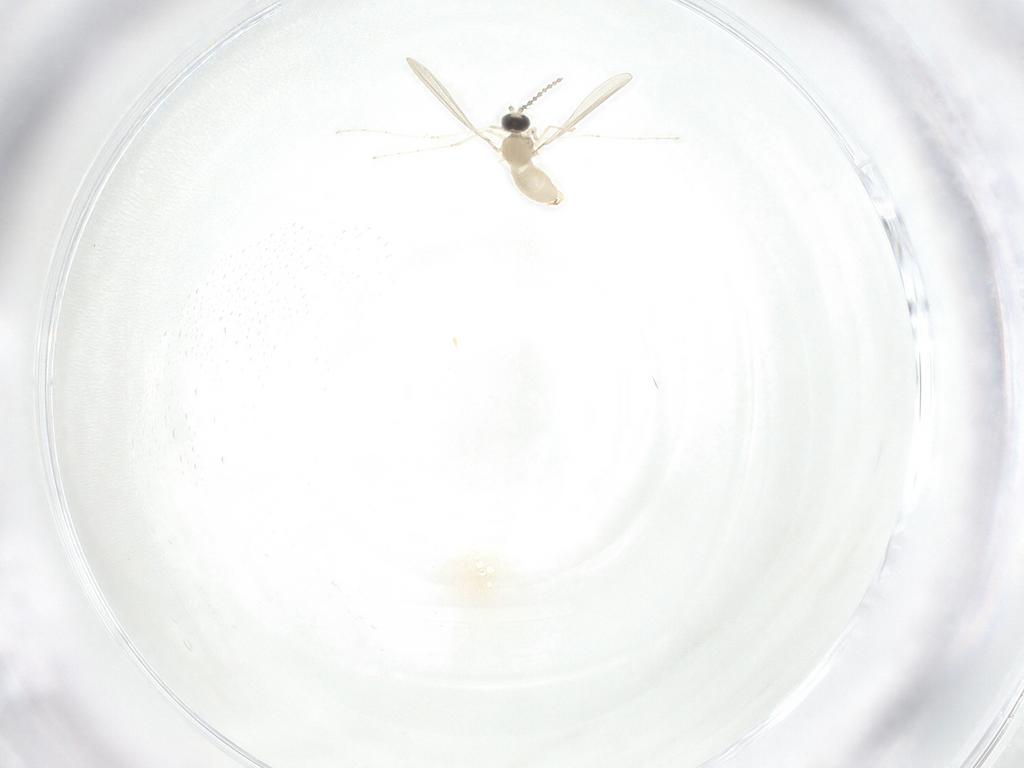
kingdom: Animalia
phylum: Arthropoda
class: Insecta
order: Diptera
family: Cecidomyiidae
